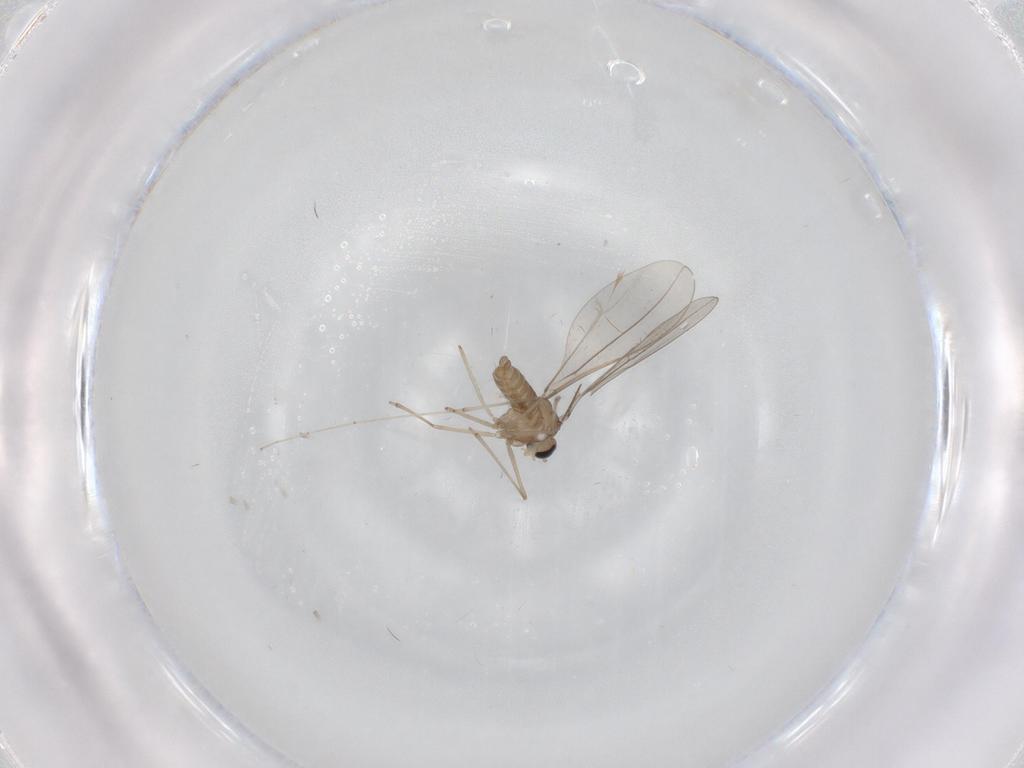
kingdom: Animalia
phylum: Arthropoda
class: Insecta
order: Diptera
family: Cecidomyiidae
